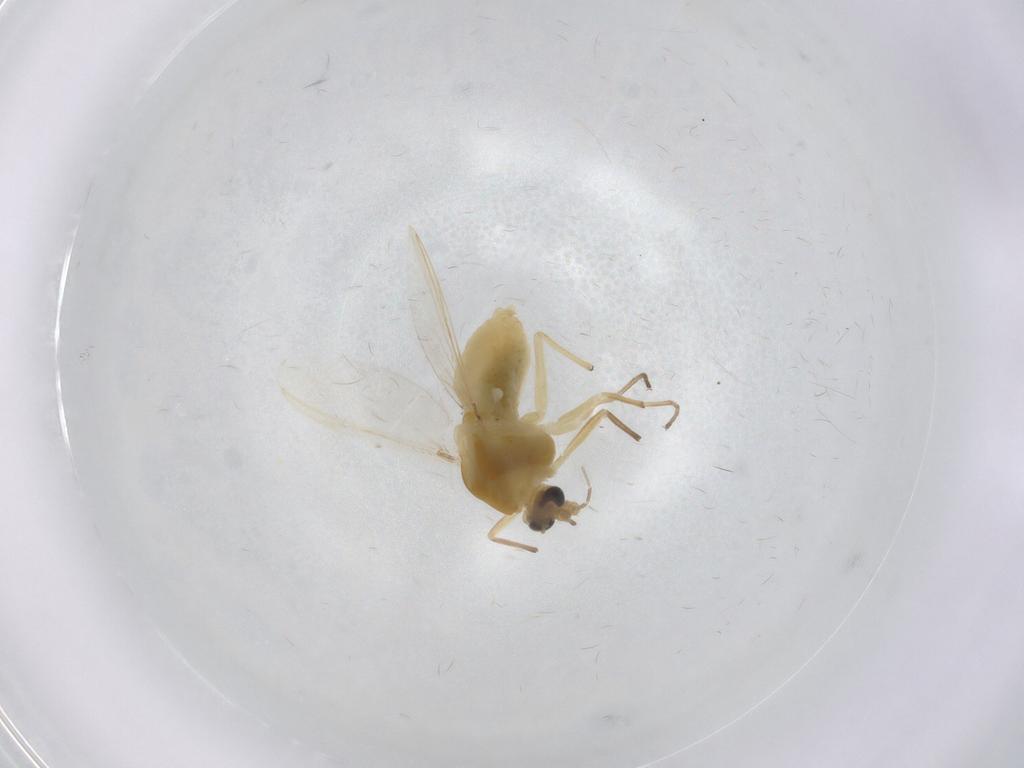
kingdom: Animalia
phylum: Arthropoda
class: Insecta
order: Diptera
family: Chironomidae
